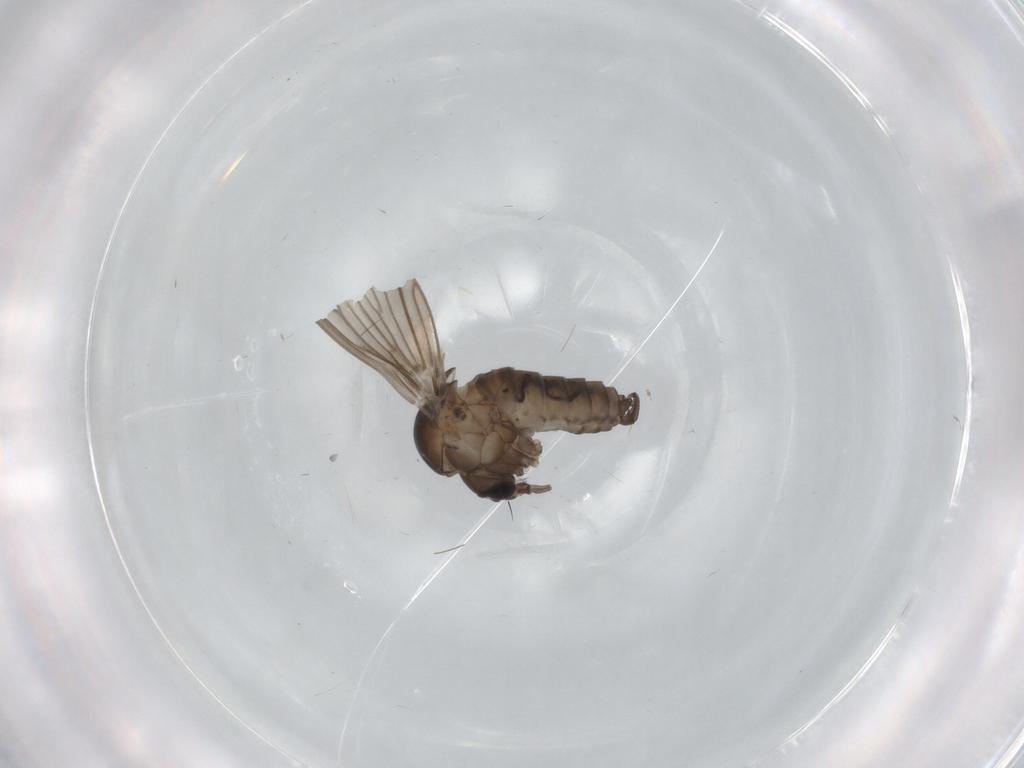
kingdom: Animalia
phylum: Arthropoda
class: Insecta
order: Diptera
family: Psychodidae
